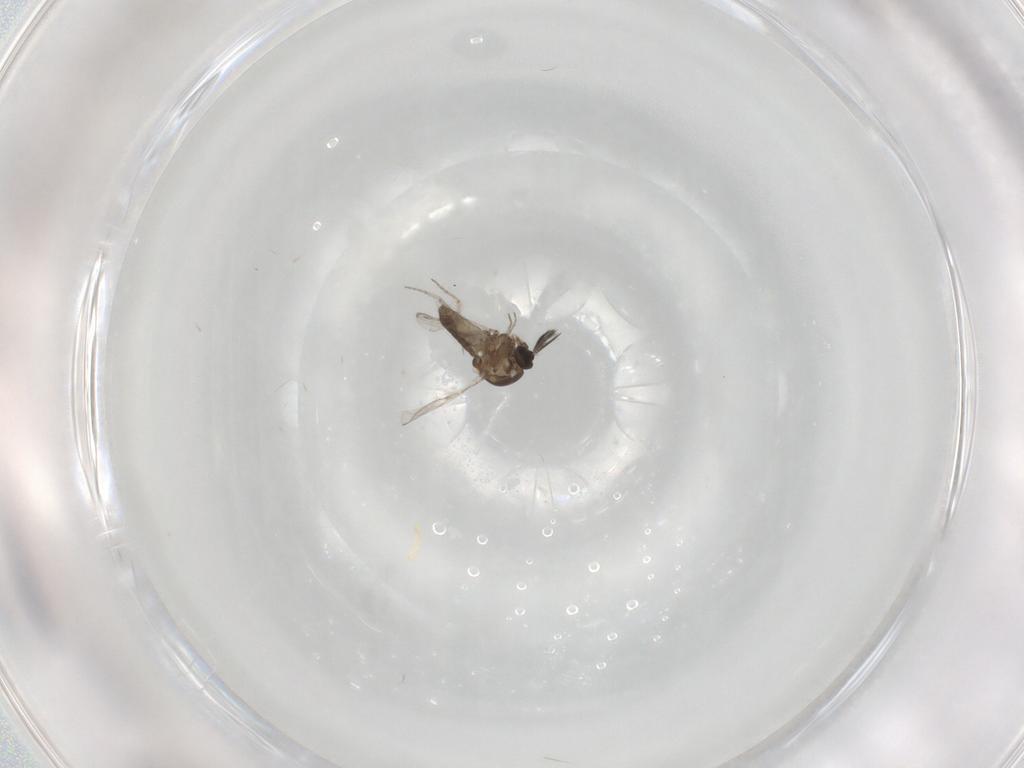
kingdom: Animalia
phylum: Arthropoda
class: Insecta
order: Diptera
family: Ceratopogonidae
